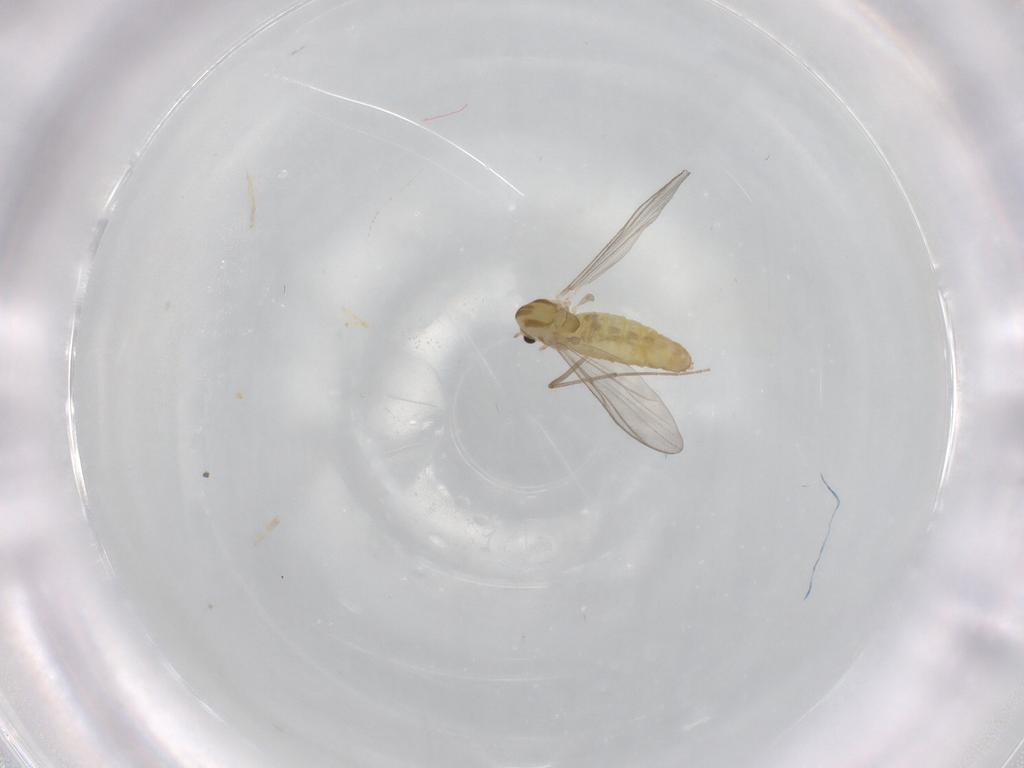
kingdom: Animalia
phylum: Arthropoda
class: Insecta
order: Diptera
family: Chironomidae
